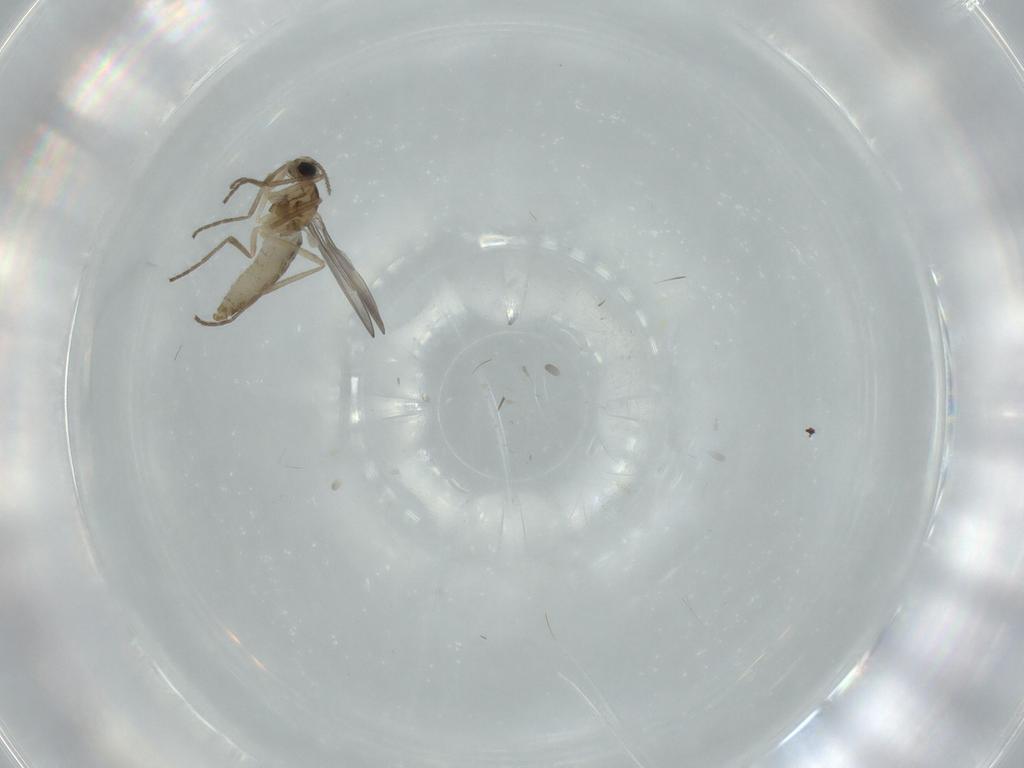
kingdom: Animalia
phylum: Arthropoda
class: Insecta
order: Diptera
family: Cecidomyiidae
